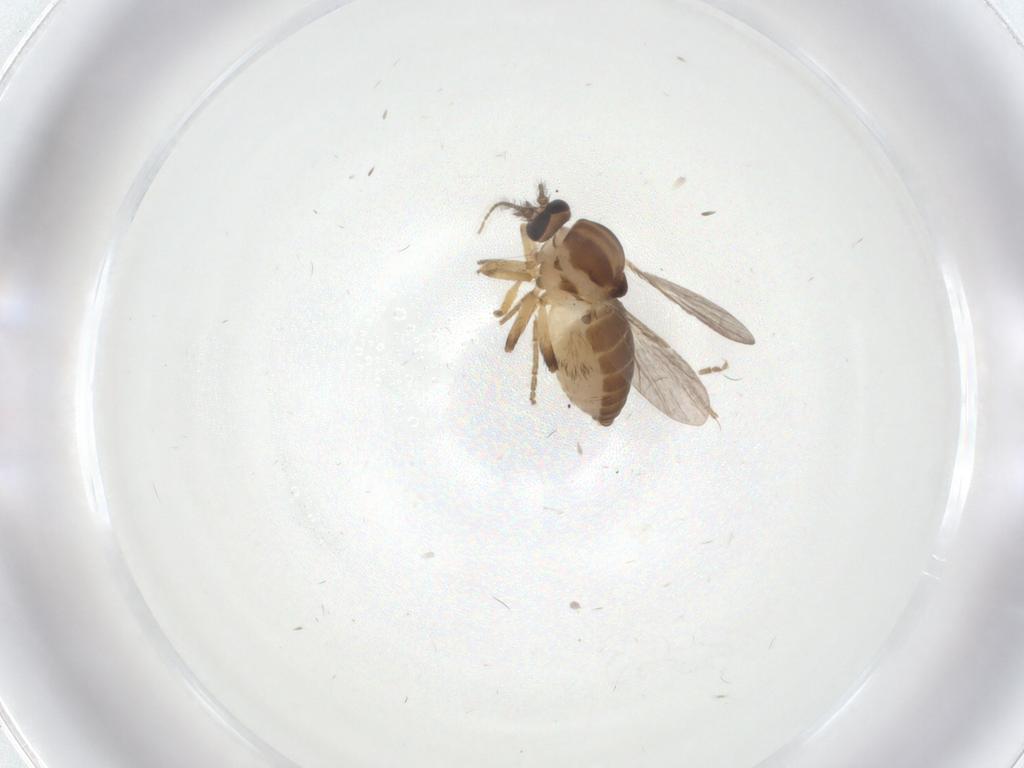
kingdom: Animalia
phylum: Arthropoda
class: Insecta
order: Diptera
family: Ceratopogonidae
